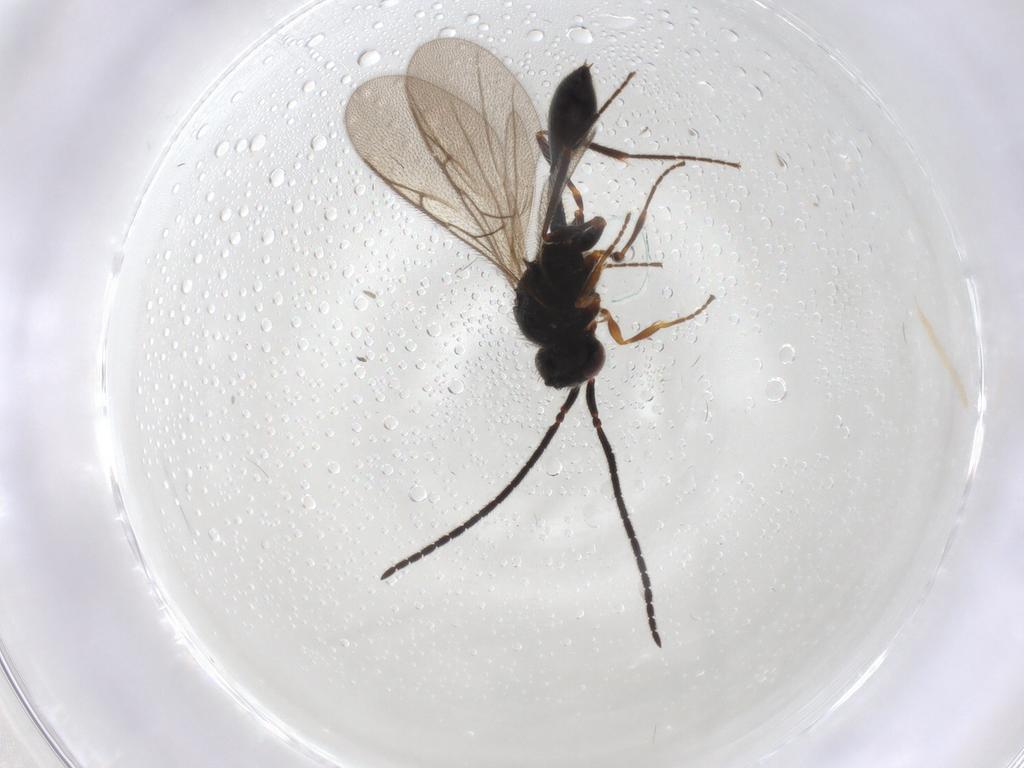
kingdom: Animalia
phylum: Arthropoda
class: Insecta
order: Hymenoptera
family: Diapriidae
